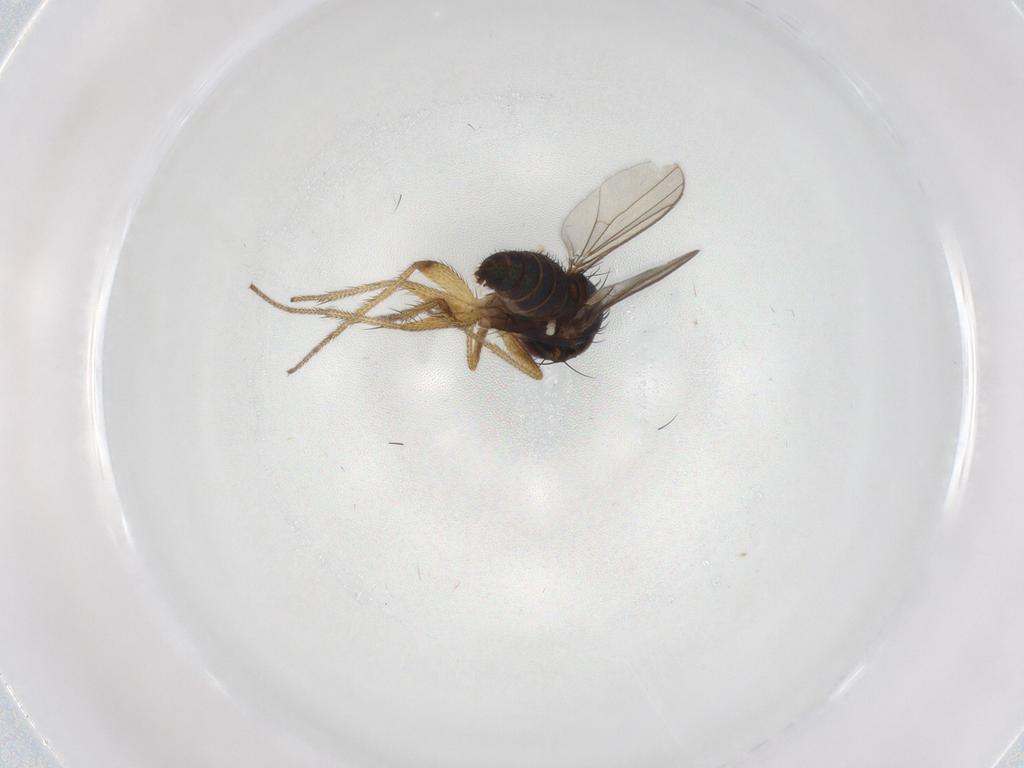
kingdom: Animalia
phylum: Arthropoda
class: Insecta
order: Diptera
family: Dolichopodidae
